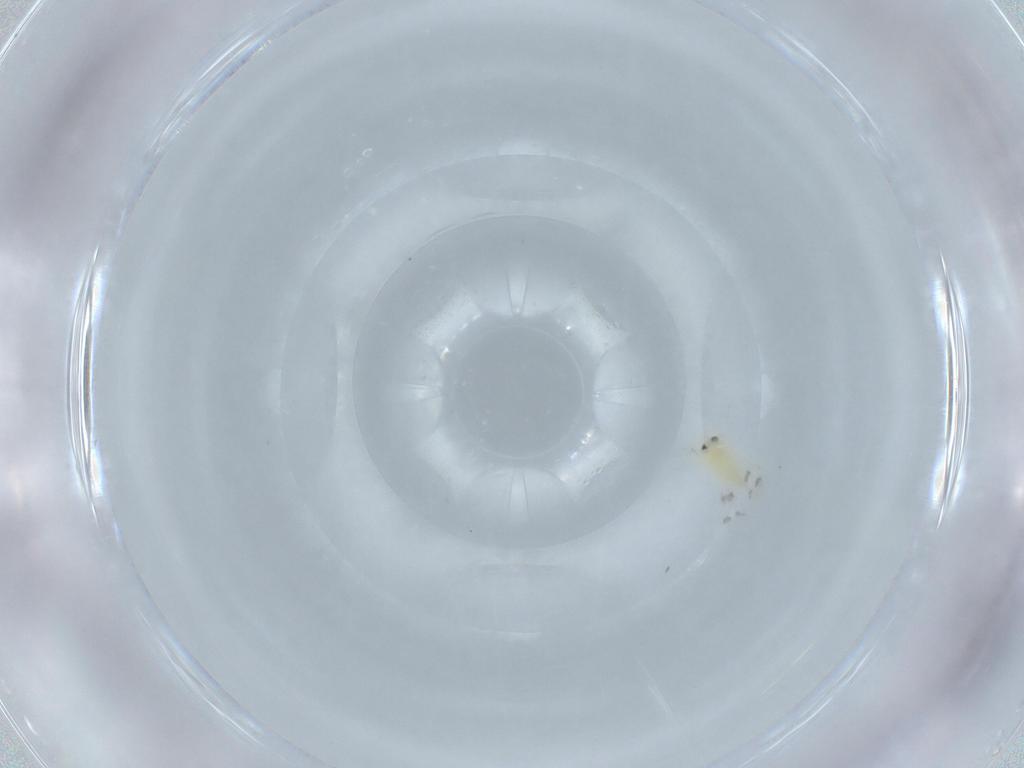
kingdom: Animalia
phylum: Arthropoda
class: Insecta
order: Hemiptera
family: Aleyrodidae
